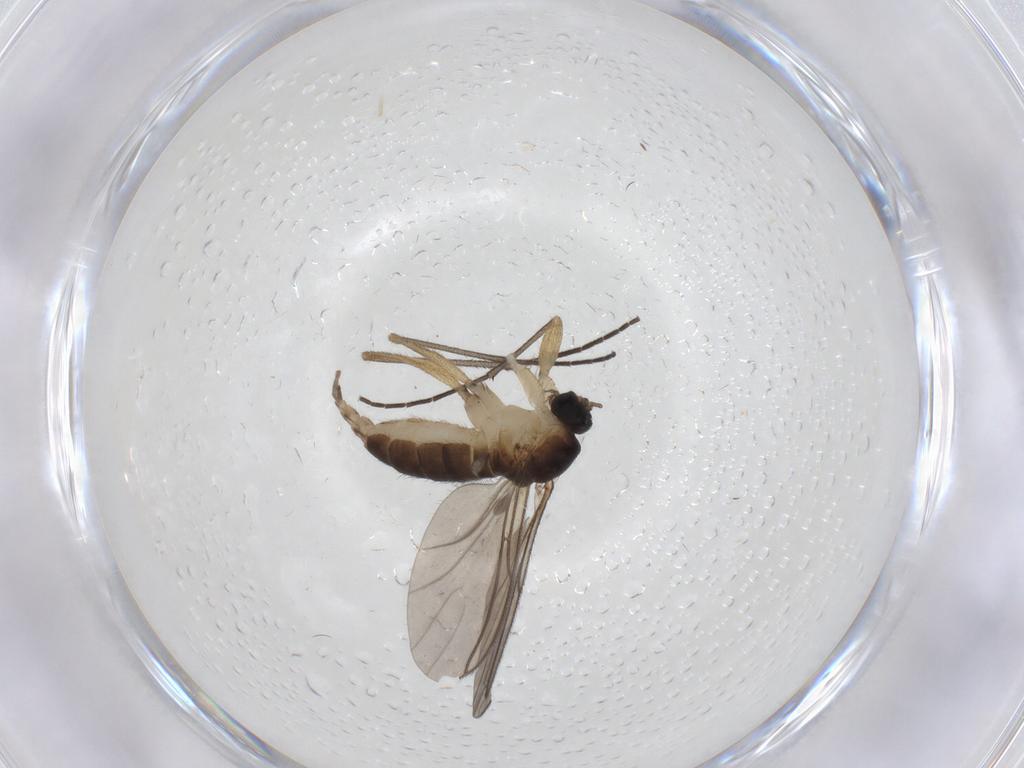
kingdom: Animalia
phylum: Arthropoda
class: Insecta
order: Diptera
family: Sciaridae
